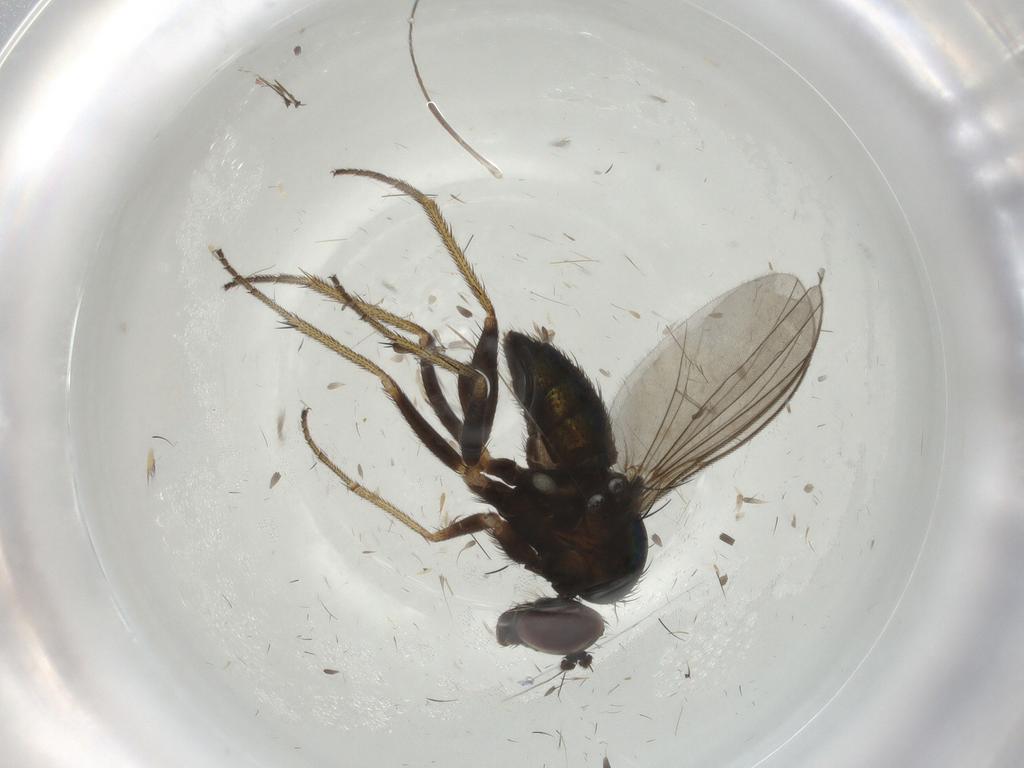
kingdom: Animalia
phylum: Arthropoda
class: Insecta
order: Diptera
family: Dolichopodidae
